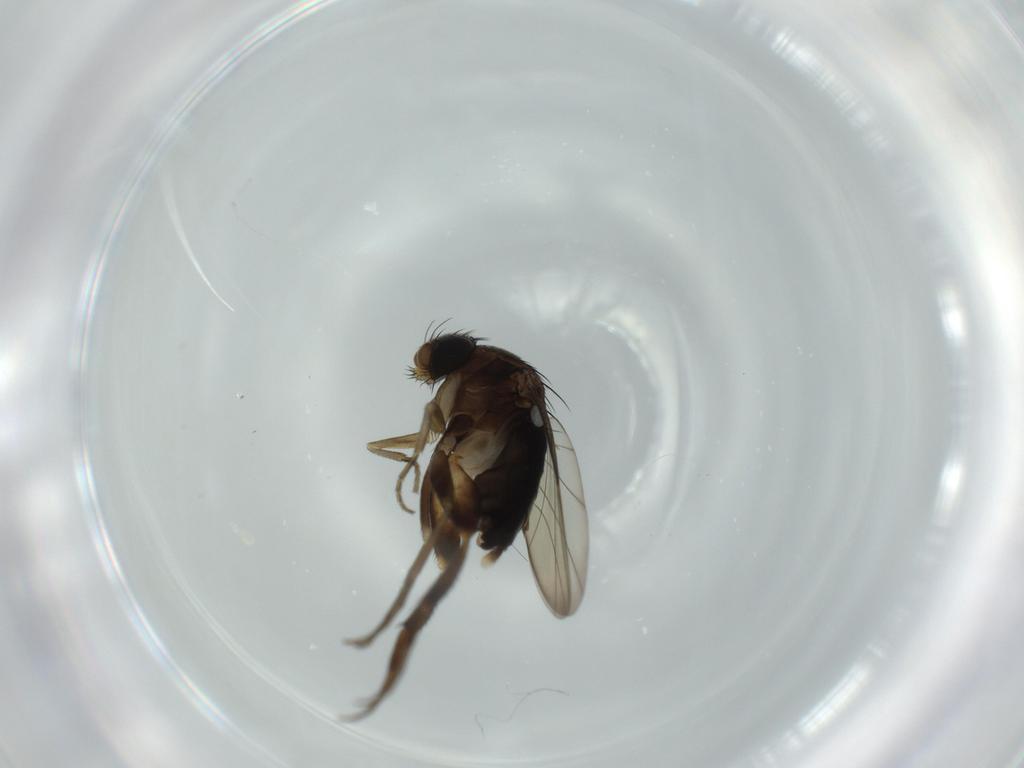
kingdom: Animalia
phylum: Arthropoda
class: Insecta
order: Diptera
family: Phoridae
